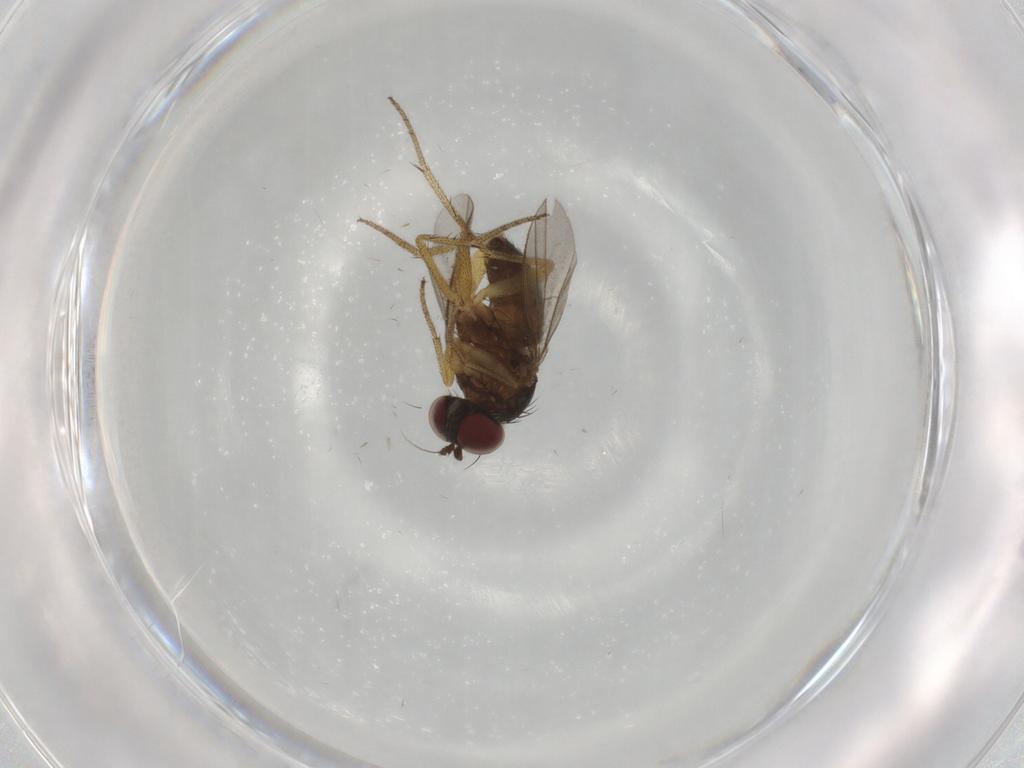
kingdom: Animalia
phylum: Arthropoda
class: Insecta
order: Diptera
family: Dolichopodidae
